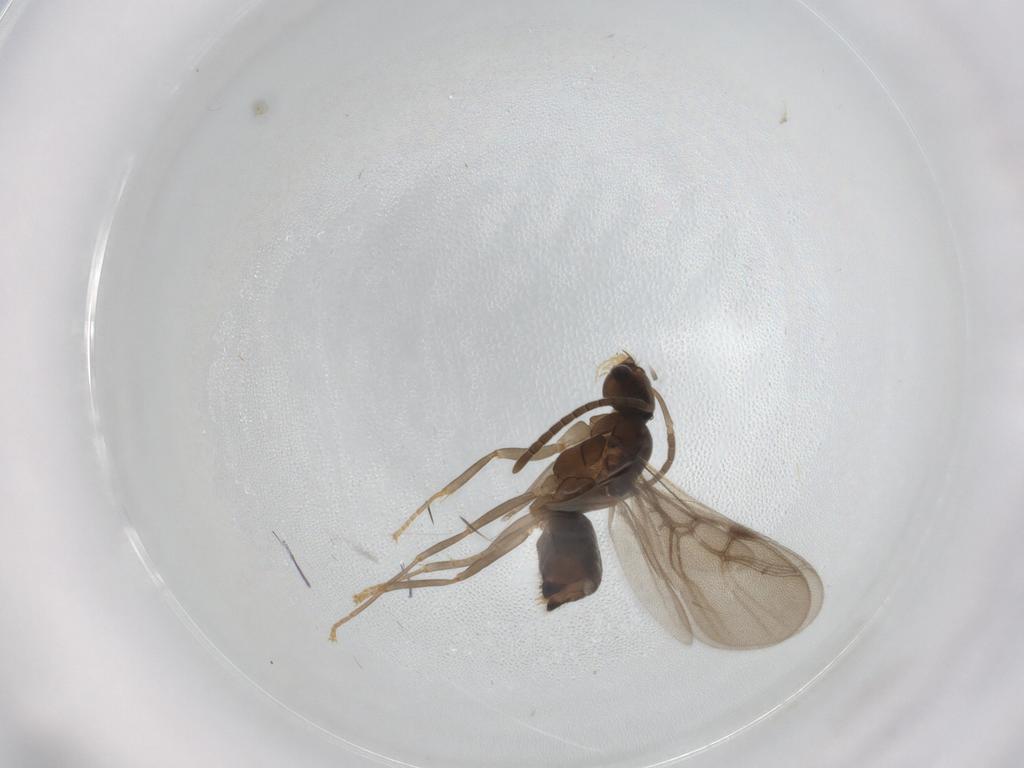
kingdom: Animalia
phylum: Arthropoda
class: Insecta
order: Hymenoptera
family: Formicidae
